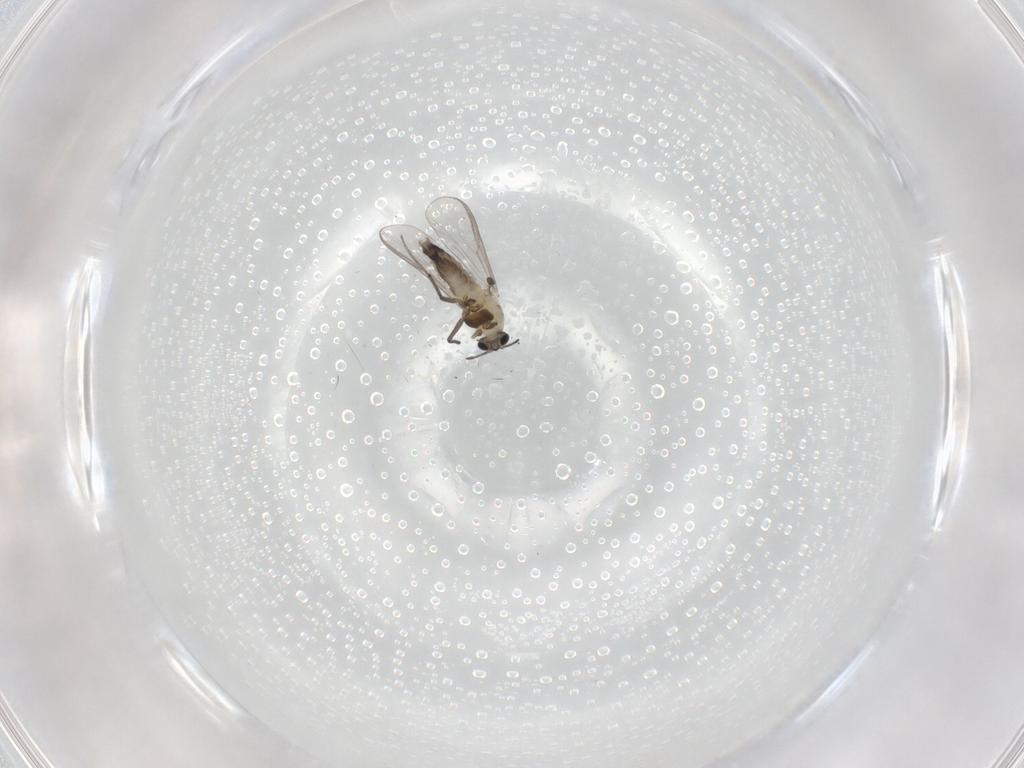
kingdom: Animalia
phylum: Arthropoda
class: Insecta
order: Diptera
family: Chironomidae
